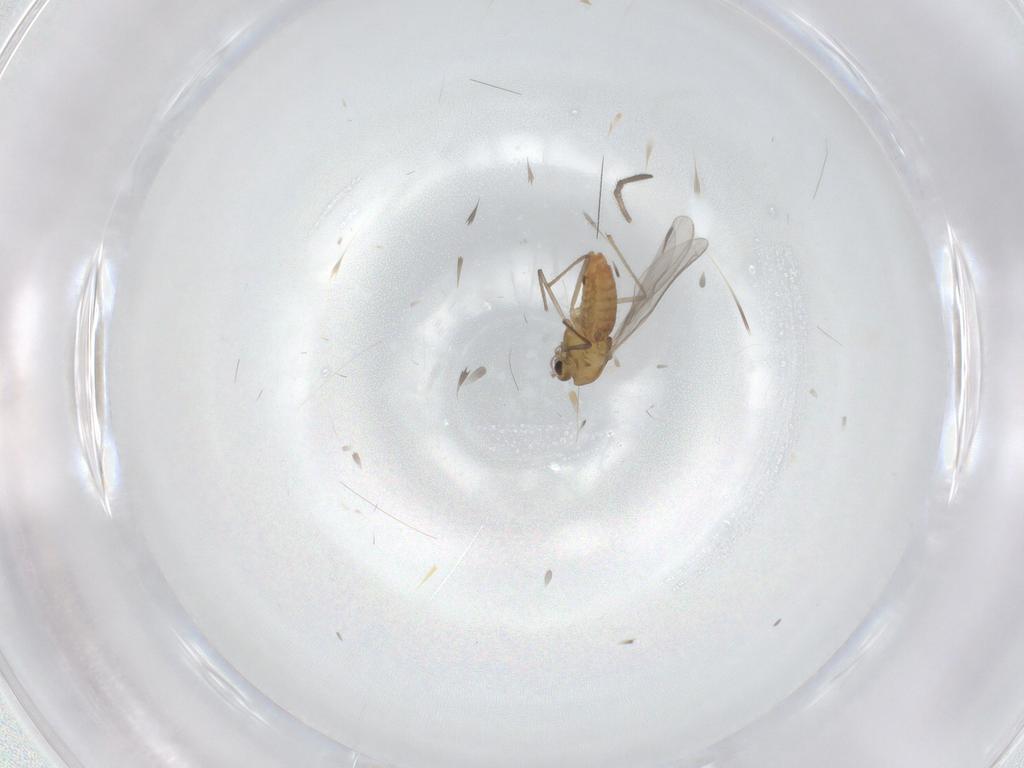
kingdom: Animalia
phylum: Arthropoda
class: Insecta
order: Diptera
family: Chironomidae
